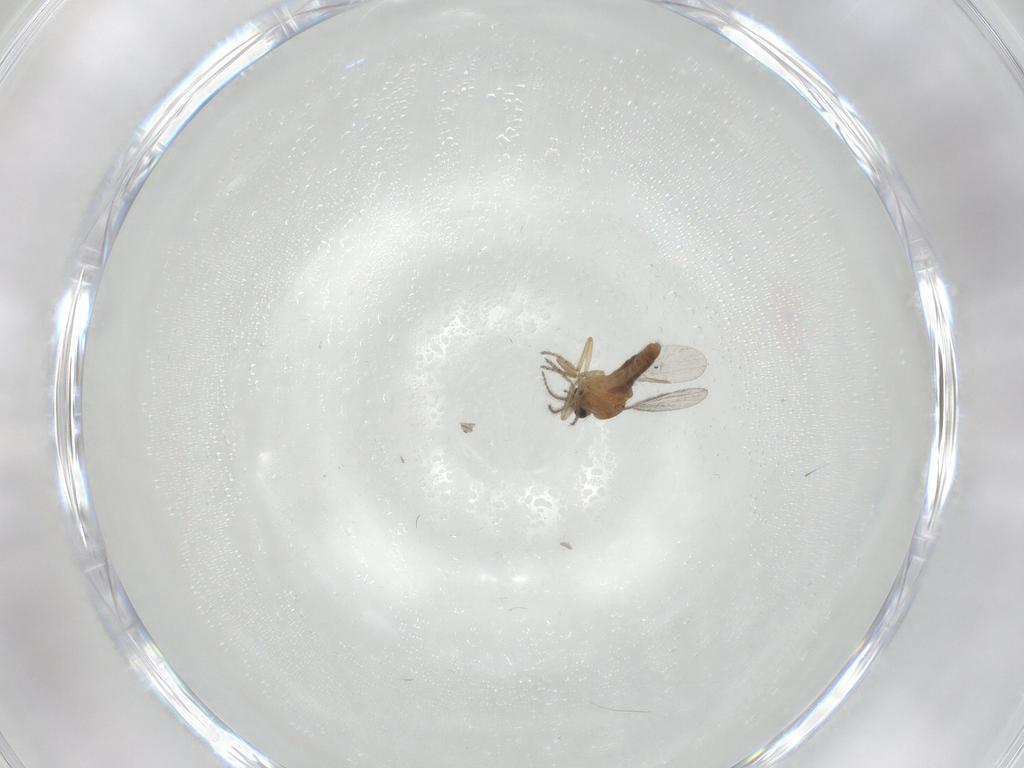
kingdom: Animalia
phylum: Arthropoda
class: Insecta
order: Diptera
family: Ceratopogonidae
